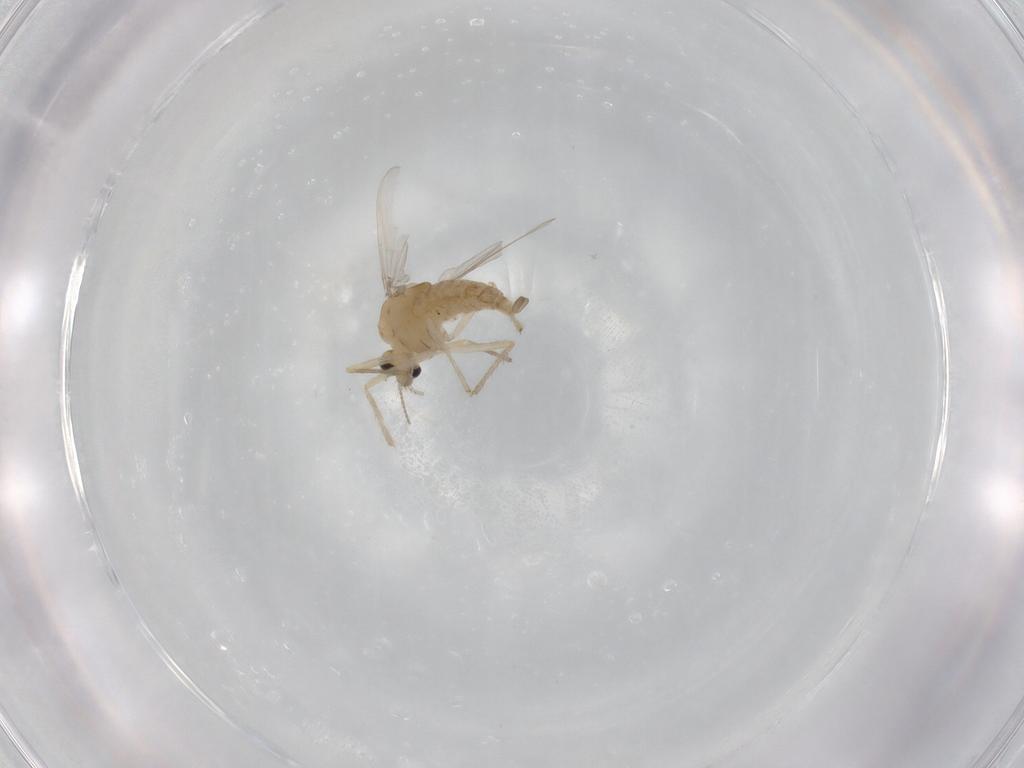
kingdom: Animalia
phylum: Arthropoda
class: Insecta
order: Diptera
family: Chironomidae
